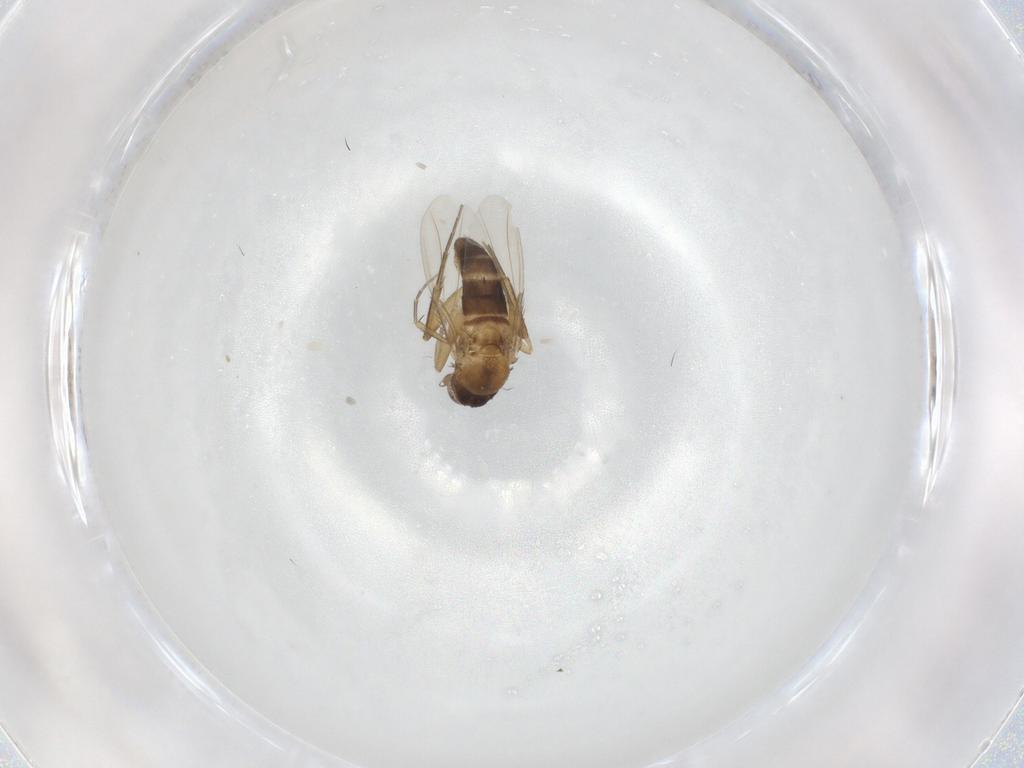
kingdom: Animalia
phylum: Arthropoda
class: Insecta
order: Diptera
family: Phoridae
